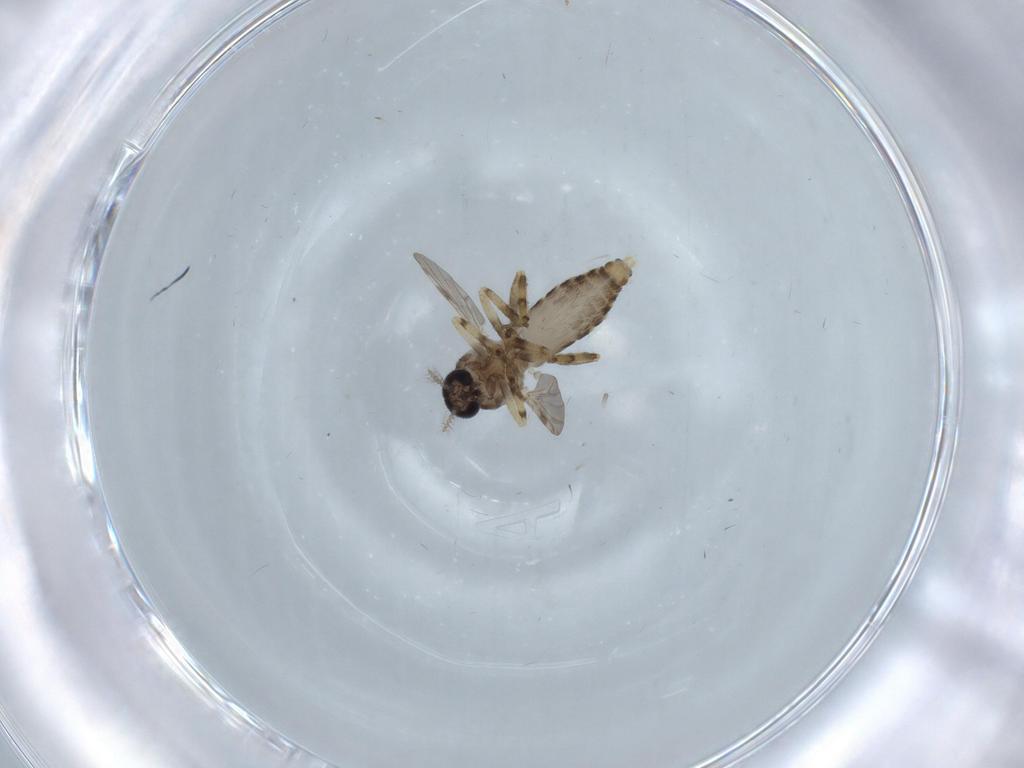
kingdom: Animalia
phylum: Arthropoda
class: Insecta
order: Diptera
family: Ceratopogonidae
